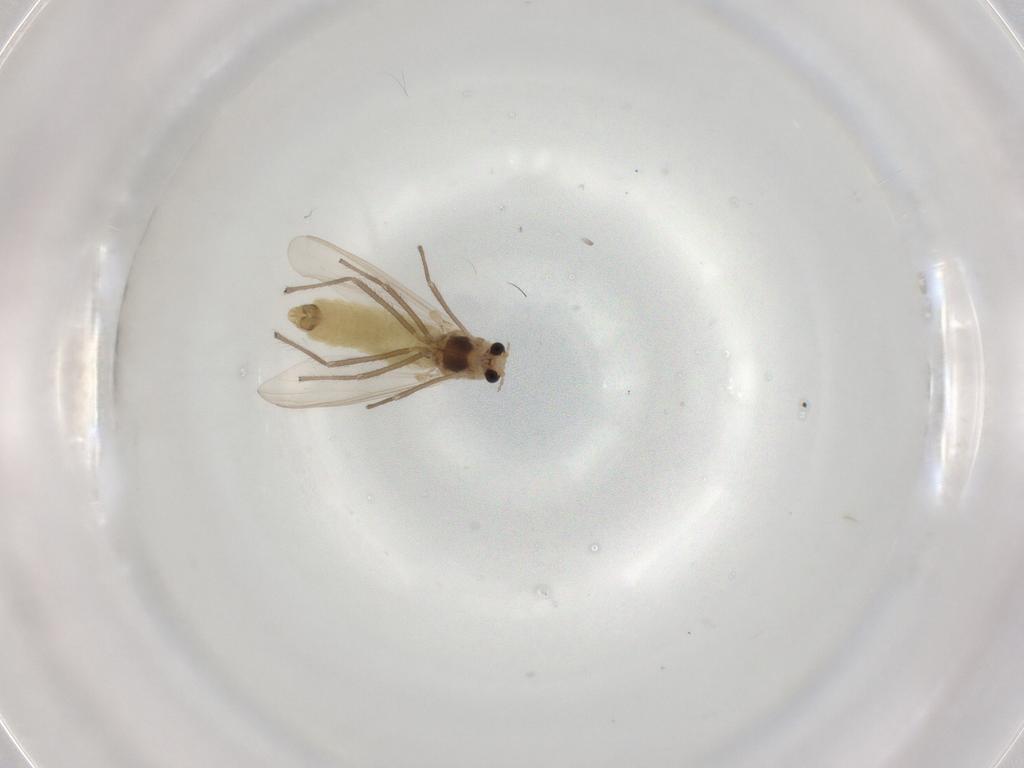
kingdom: Animalia
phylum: Arthropoda
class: Insecta
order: Diptera
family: Chironomidae
